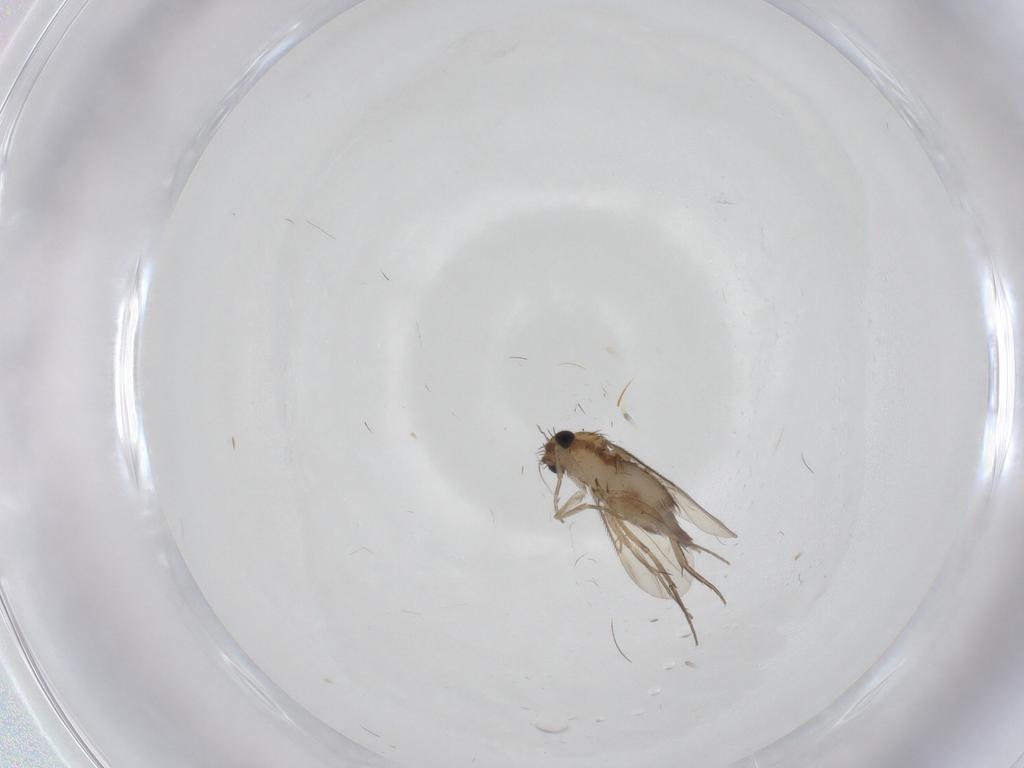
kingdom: Animalia
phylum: Arthropoda
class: Insecta
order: Diptera
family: Phoridae
